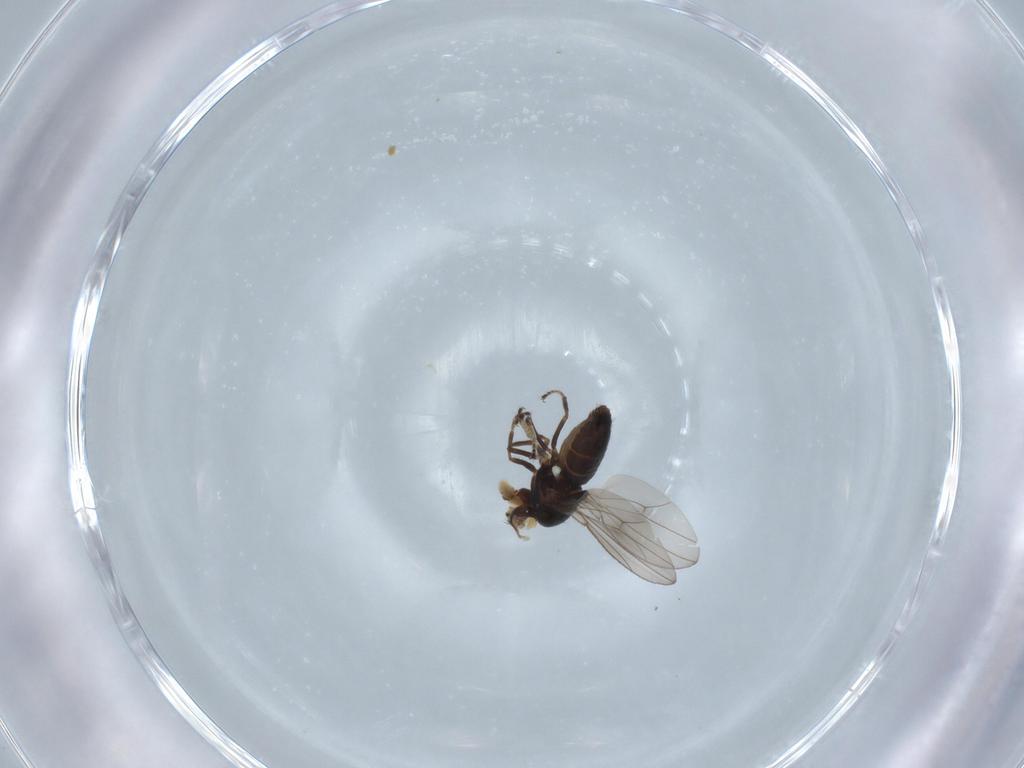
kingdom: Animalia
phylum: Arthropoda
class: Insecta
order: Diptera
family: Ephydridae
